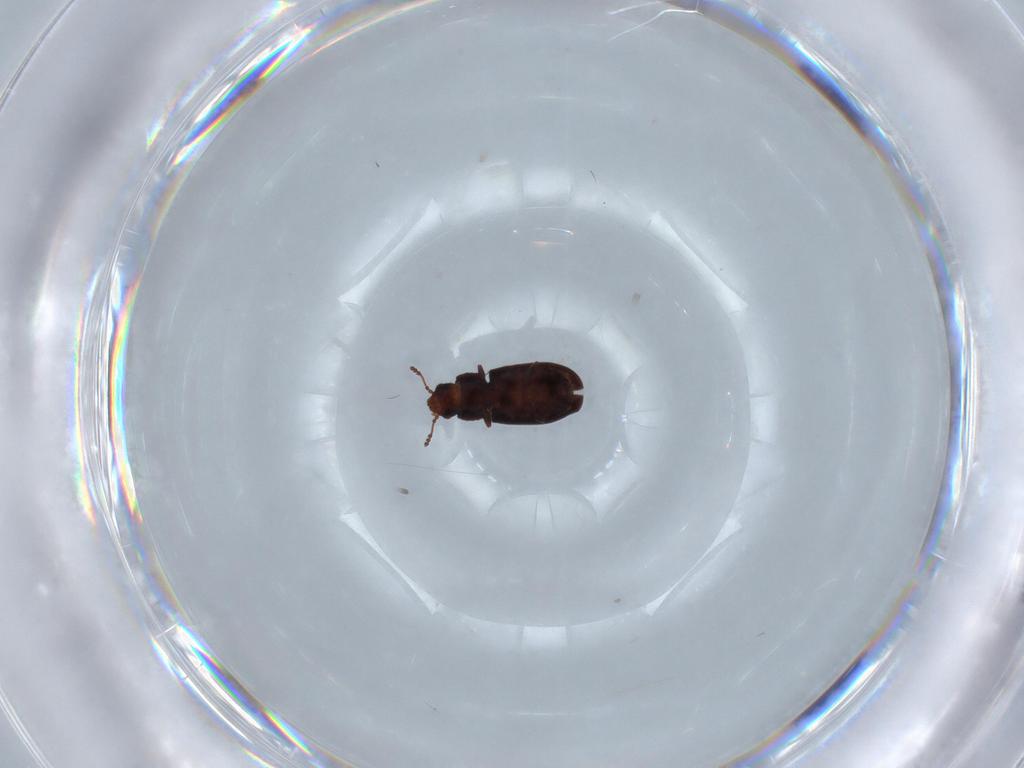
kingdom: Animalia
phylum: Arthropoda
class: Insecta
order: Coleoptera
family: Laemophloeidae
